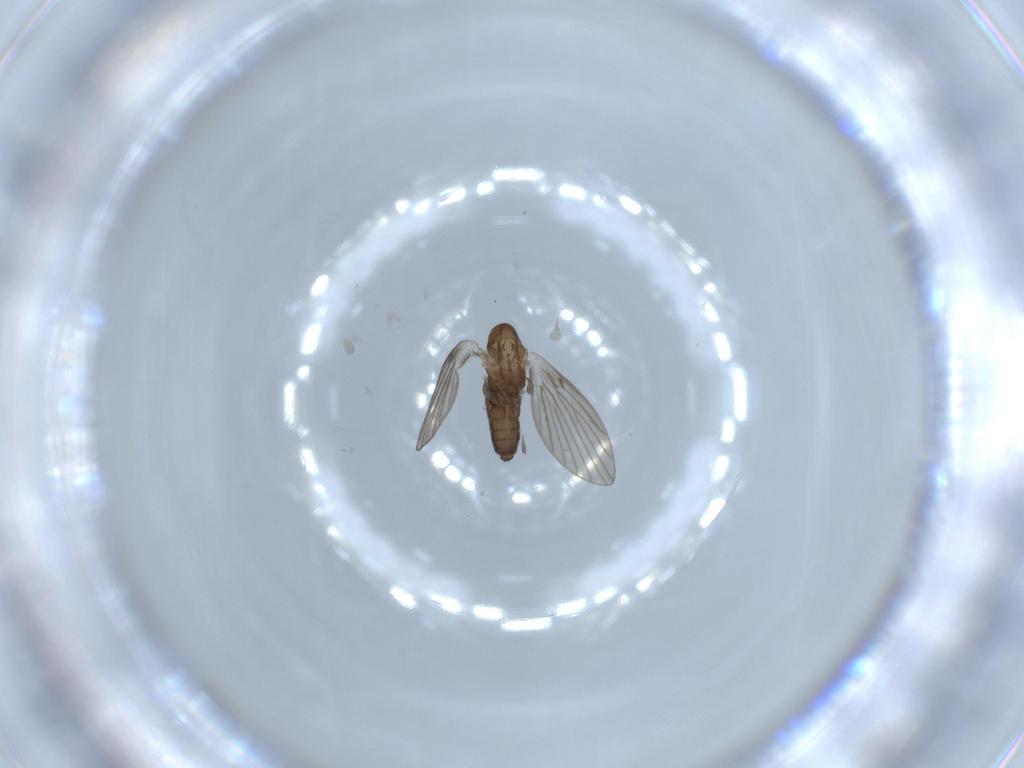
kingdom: Animalia
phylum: Arthropoda
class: Insecta
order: Diptera
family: Psychodidae
